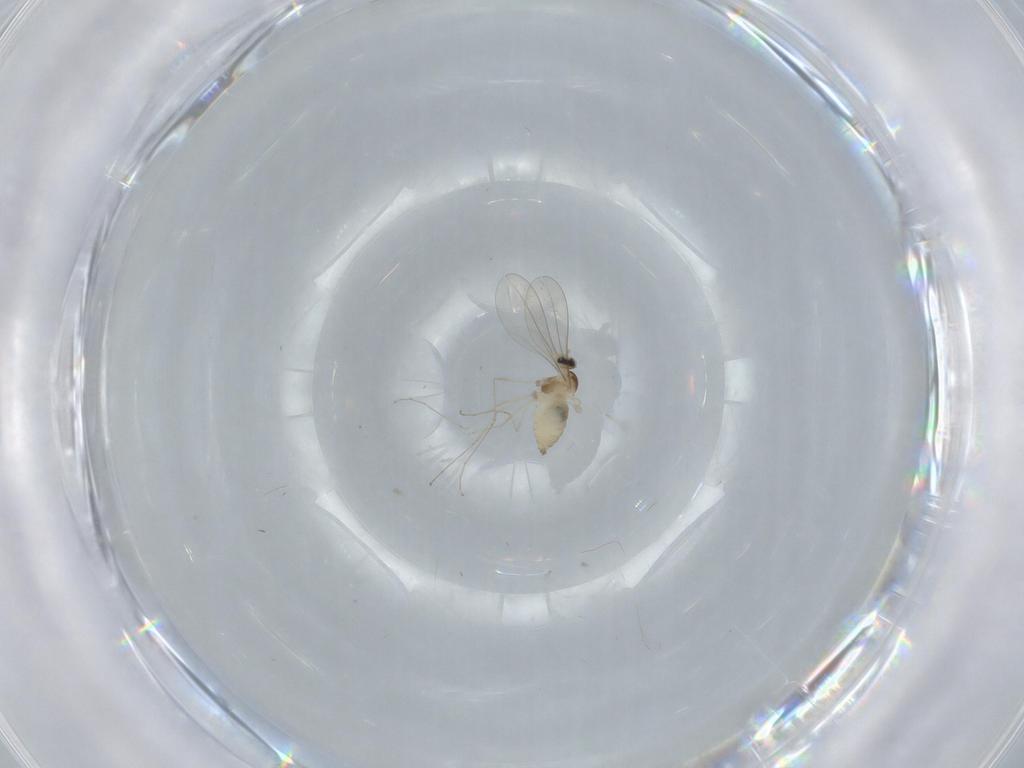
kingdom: Animalia
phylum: Arthropoda
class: Insecta
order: Diptera
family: Cecidomyiidae
